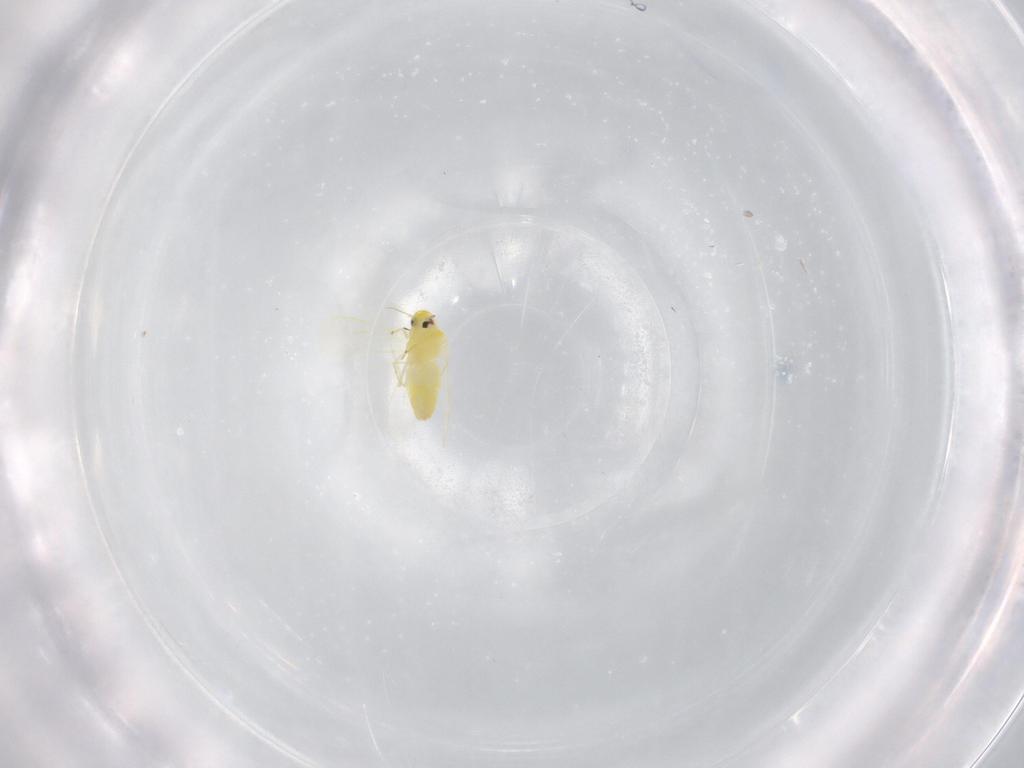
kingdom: Animalia
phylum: Arthropoda
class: Insecta
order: Hemiptera
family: Aleyrodidae
